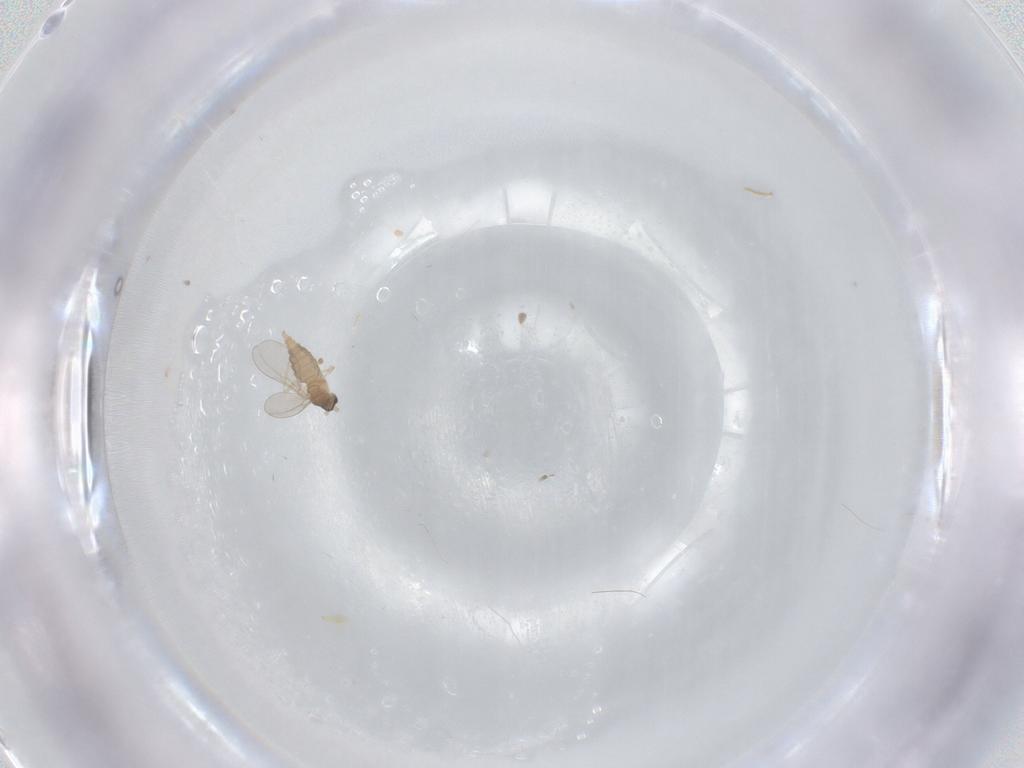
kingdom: Animalia
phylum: Arthropoda
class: Insecta
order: Diptera
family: Cecidomyiidae
